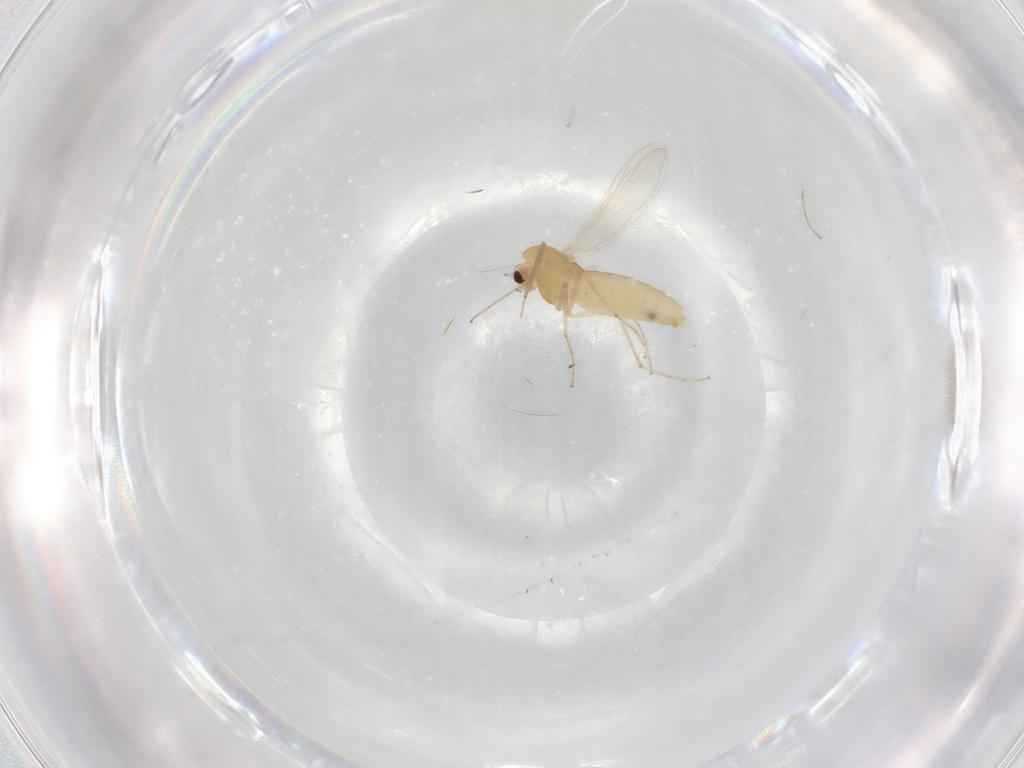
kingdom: Animalia
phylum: Arthropoda
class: Insecta
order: Diptera
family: Chironomidae
